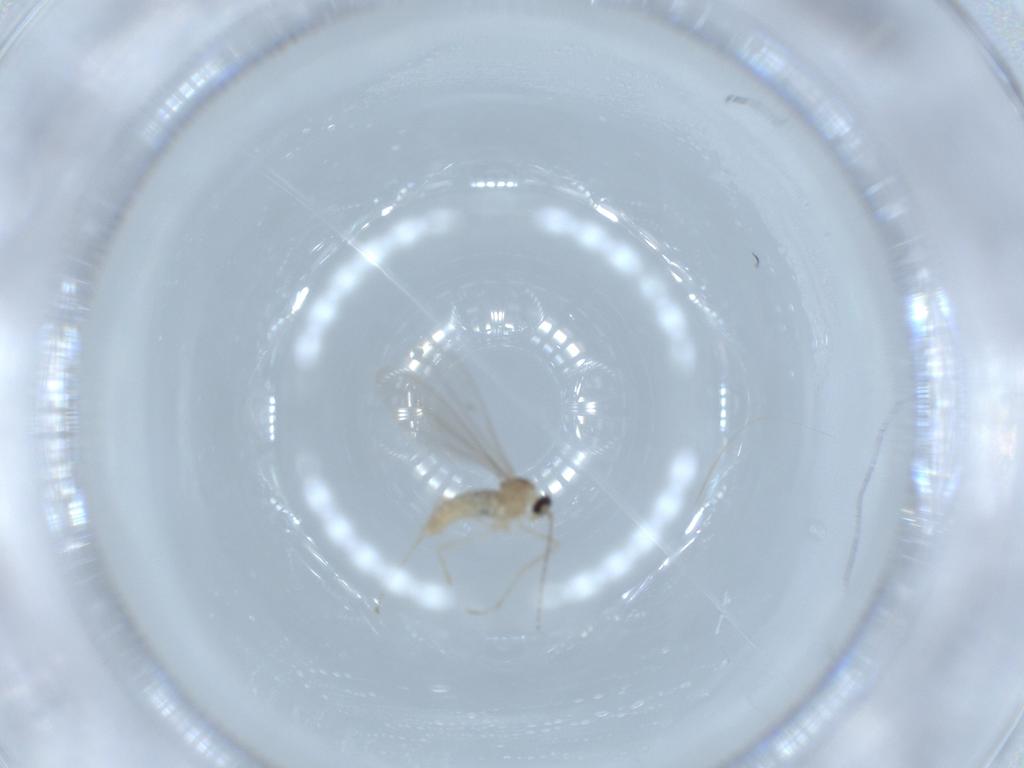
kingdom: Animalia
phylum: Arthropoda
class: Insecta
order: Diptera
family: Cecidomyiidae
